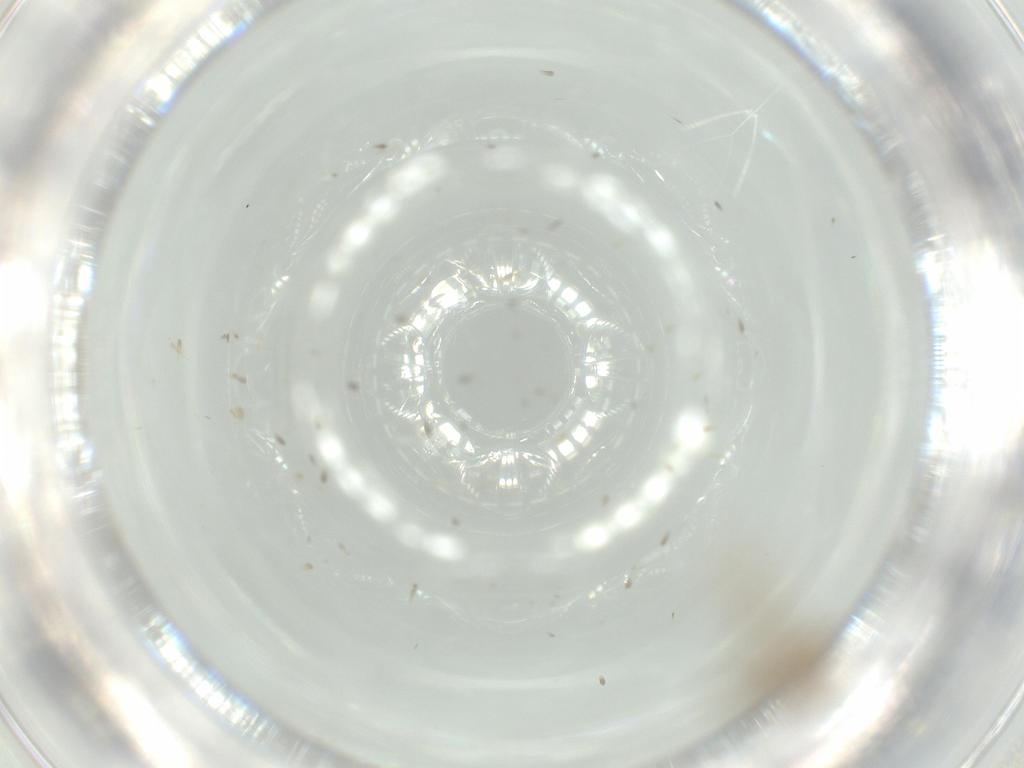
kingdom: Animalia
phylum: Arthropoda
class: Insecta
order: Diptera
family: Chironomidae
